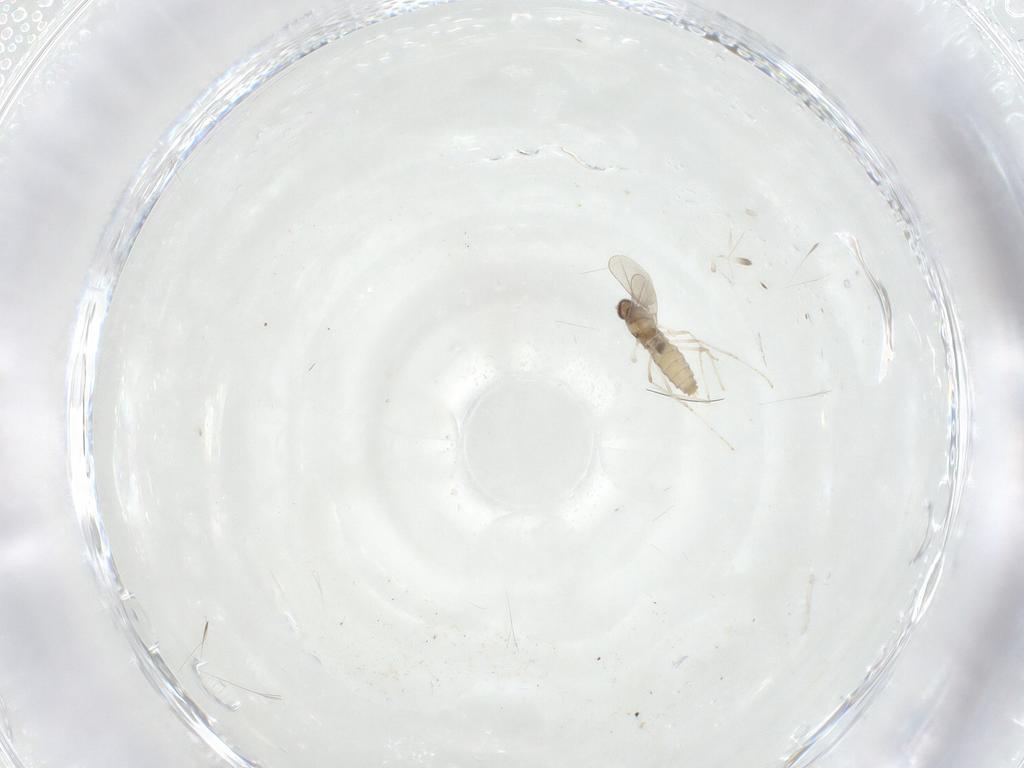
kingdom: Animalia
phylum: Arthropoda
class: Insecta
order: Diptera
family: Cecidomyiidae
